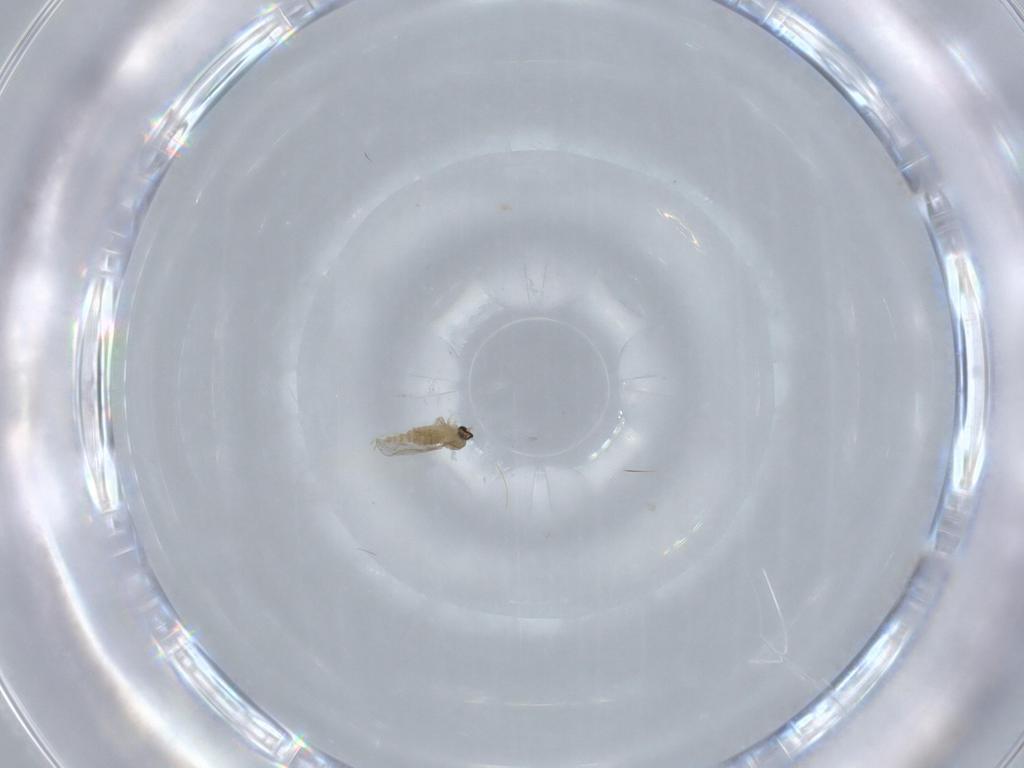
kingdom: Animalia
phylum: Arthropoda
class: Insecta
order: Diptera
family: Cecidomyiidae
